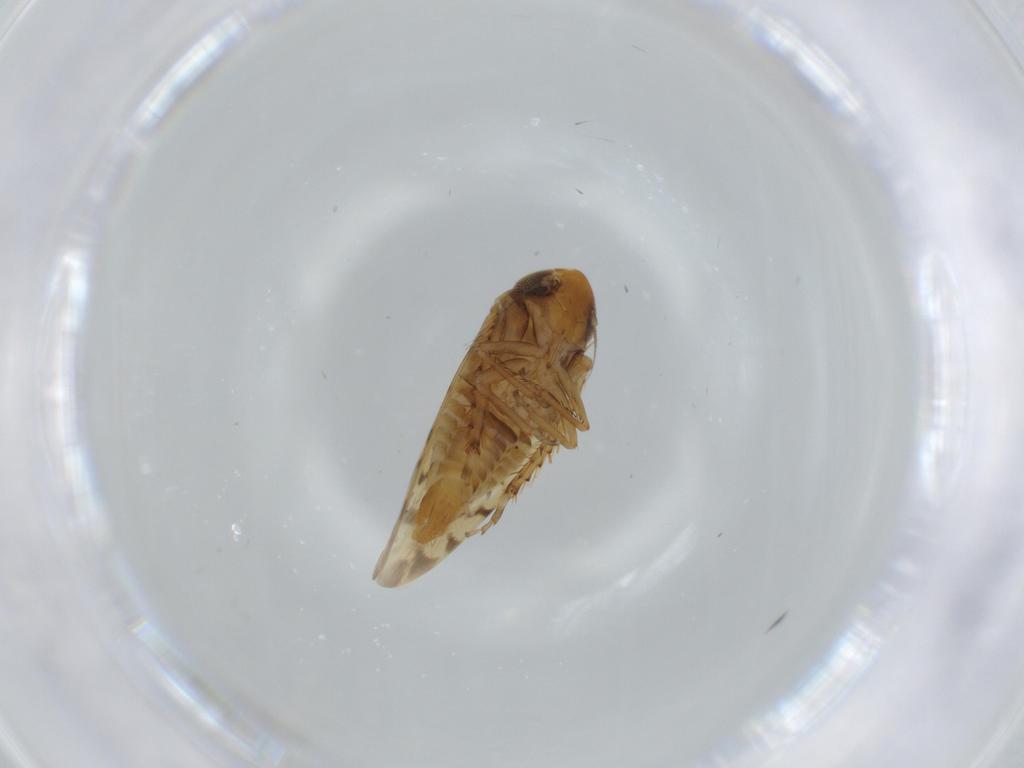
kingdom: Animalia
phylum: Arthropoda
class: Insecta
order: Hemiptera
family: Cicadellidae
